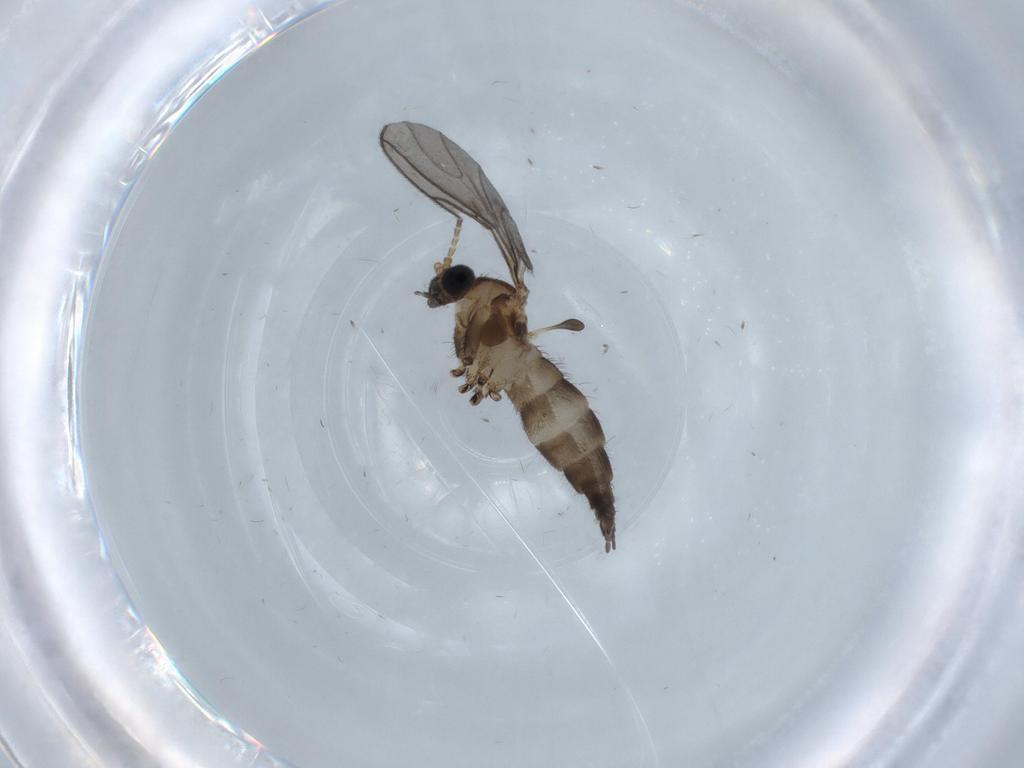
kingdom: Animalia
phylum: Arthropoda
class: Insecta
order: Diptera
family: Sciaridae
